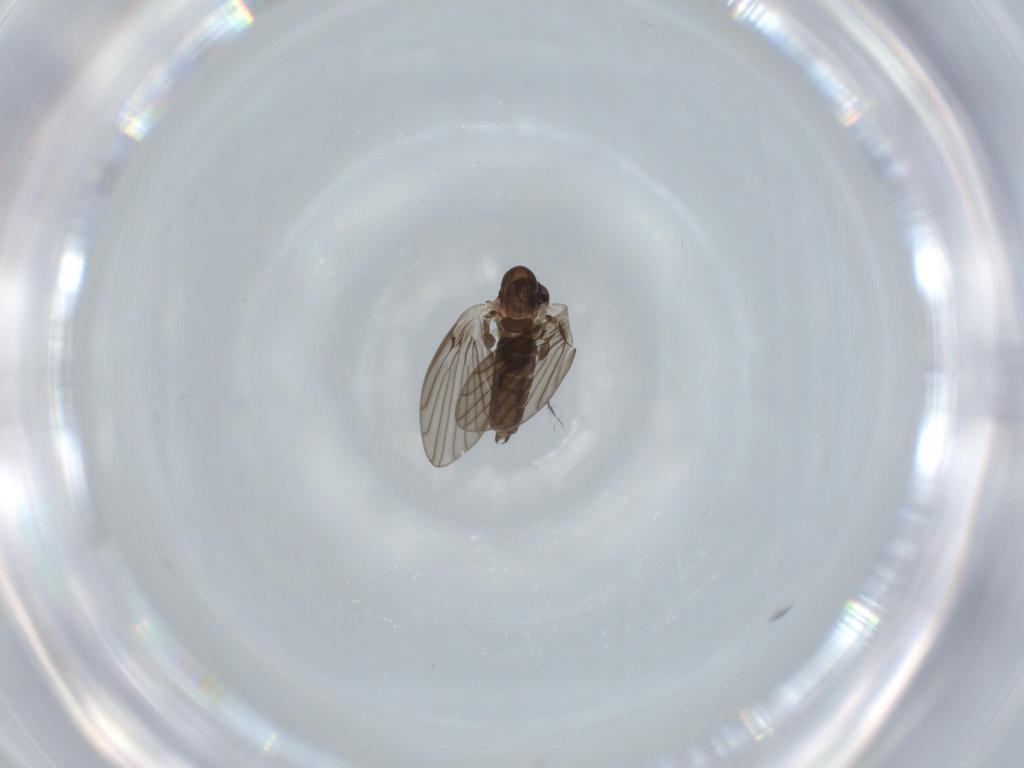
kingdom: Animalia
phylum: Arthropoda
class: Insecta
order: Diptera
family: Psychodidae
